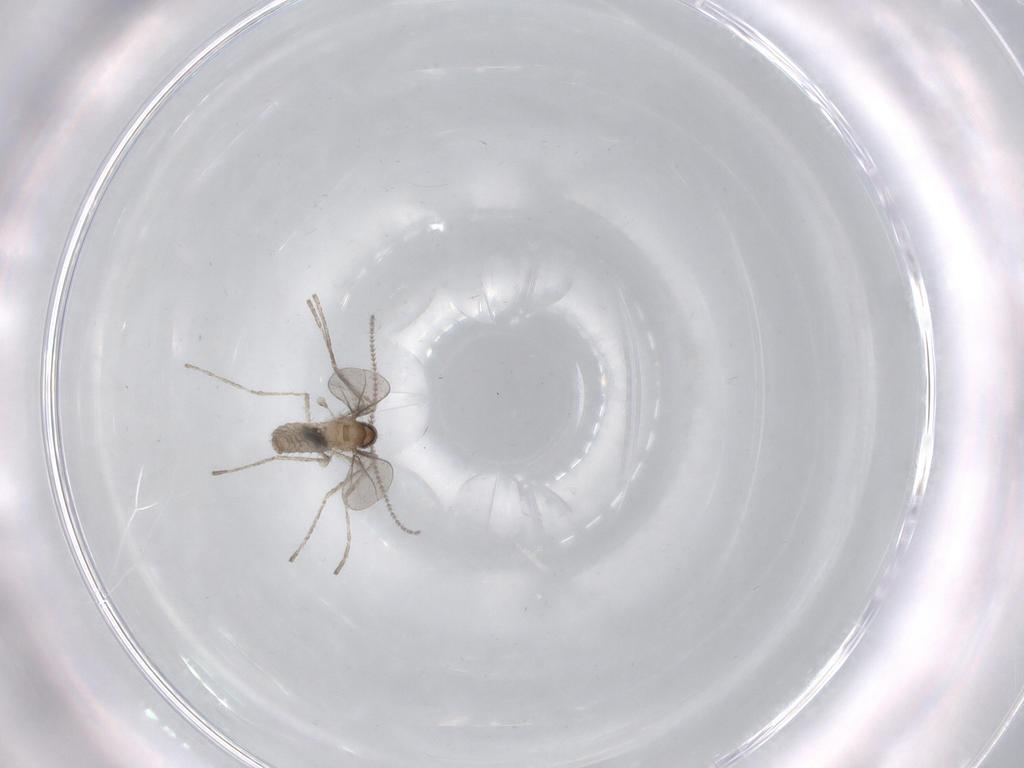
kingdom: Animalia
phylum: Arthropoda
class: Insecta
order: Diptera
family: Cecidomyiidae
